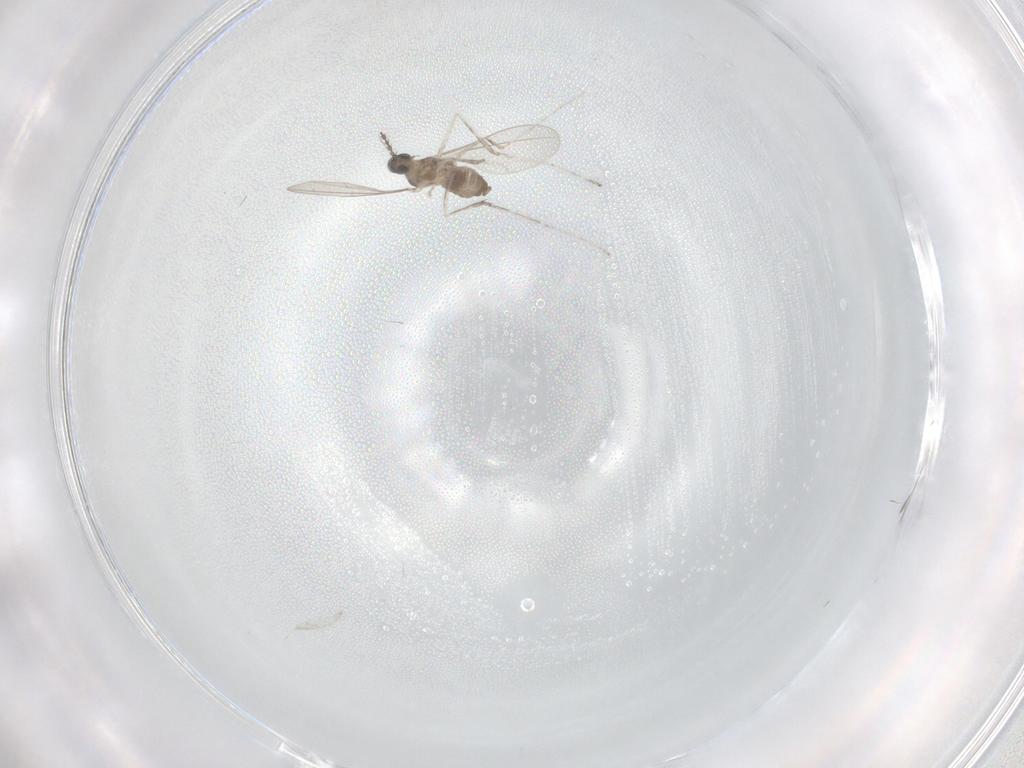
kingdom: Animalia
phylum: Arthropoda
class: Insecta
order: Diptera
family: Cecidomyiidae
